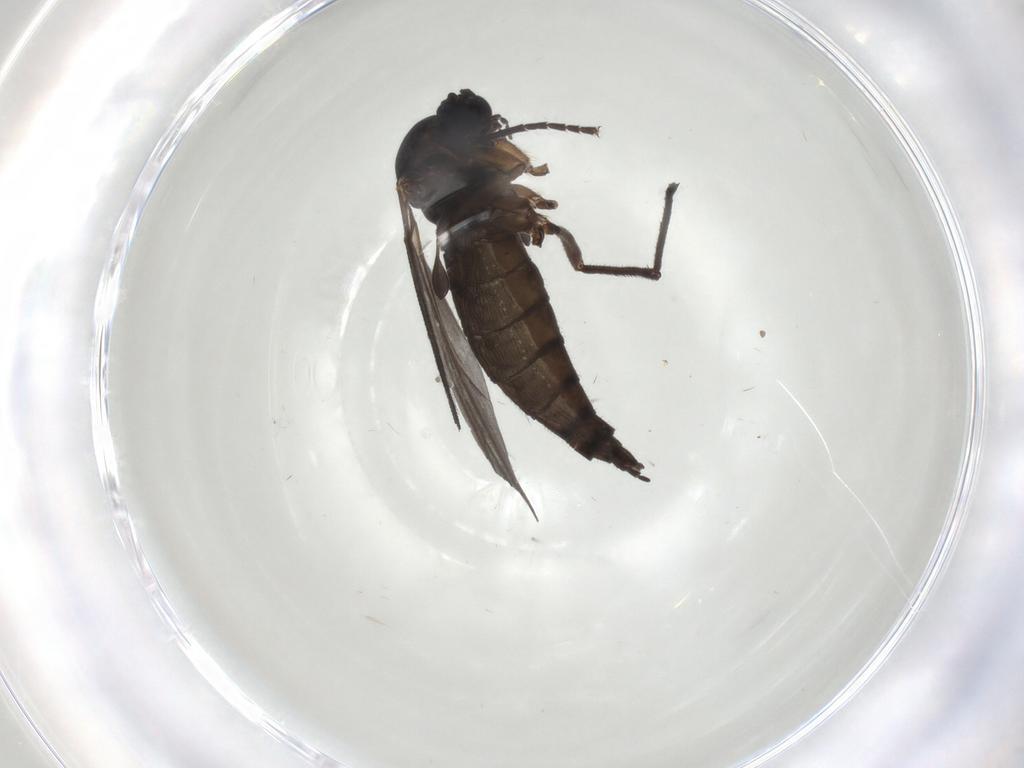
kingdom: Animalia
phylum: Arthropoda
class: Insecta
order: Diptera
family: Sciaridae
